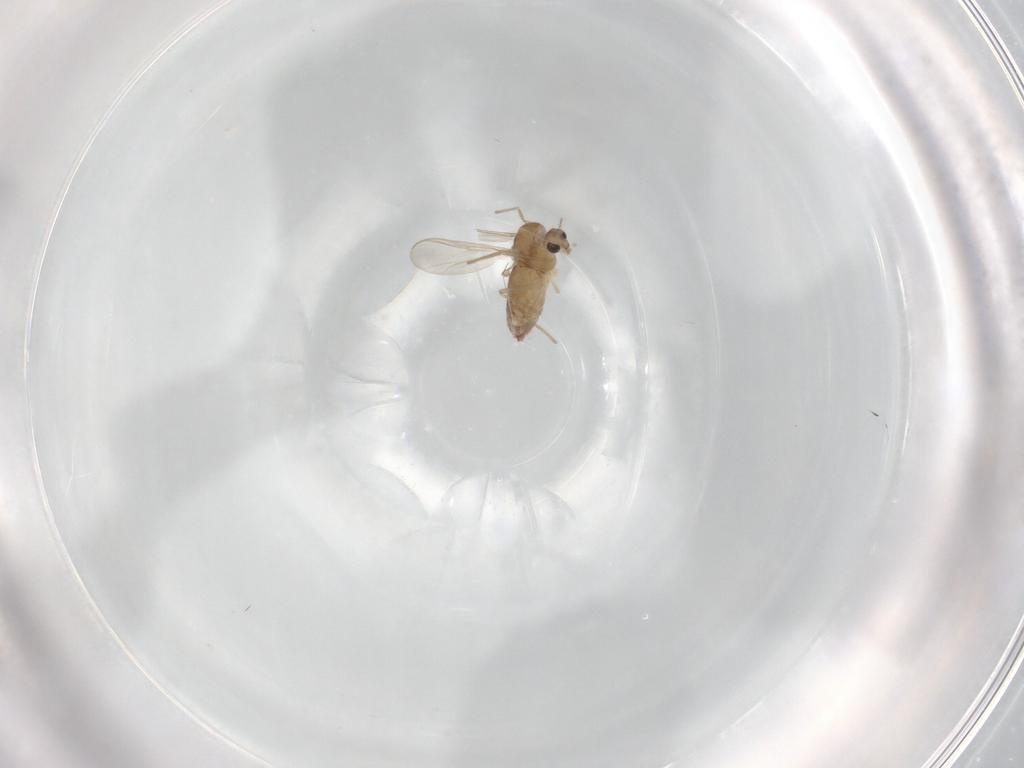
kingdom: Animalia
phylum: Arthropoda
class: Insecta
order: Diptera
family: Chironomidae
